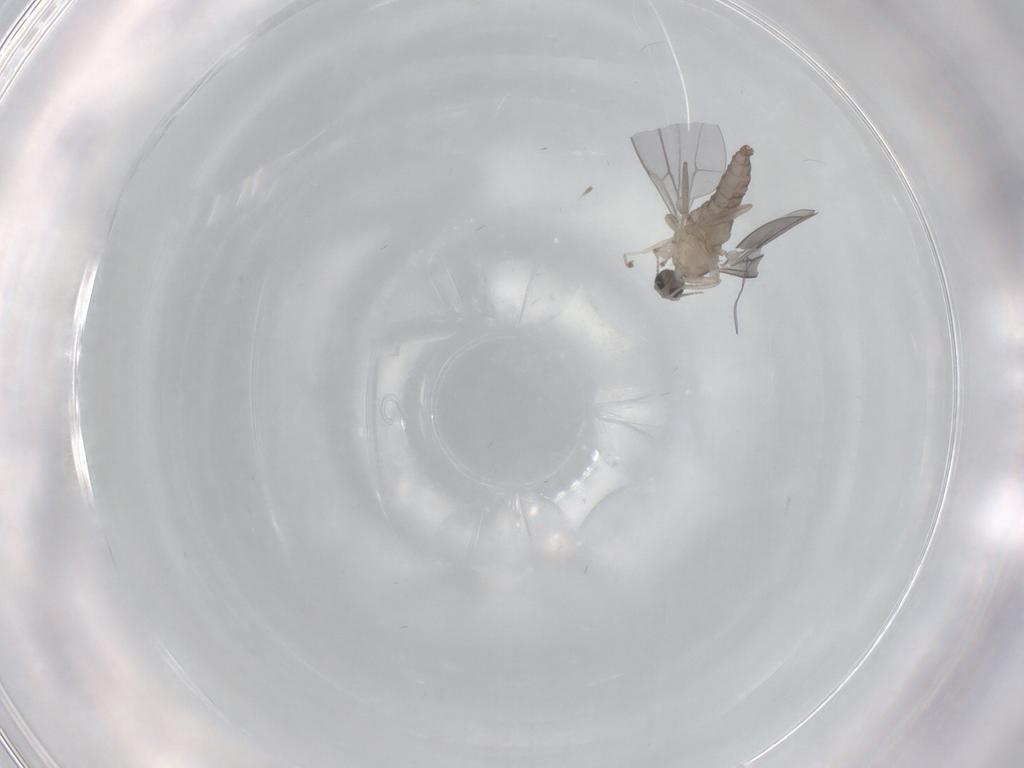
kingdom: Animalia
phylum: Arthropoda
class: Insecta
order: Diptera
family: Cecidomyiidae
